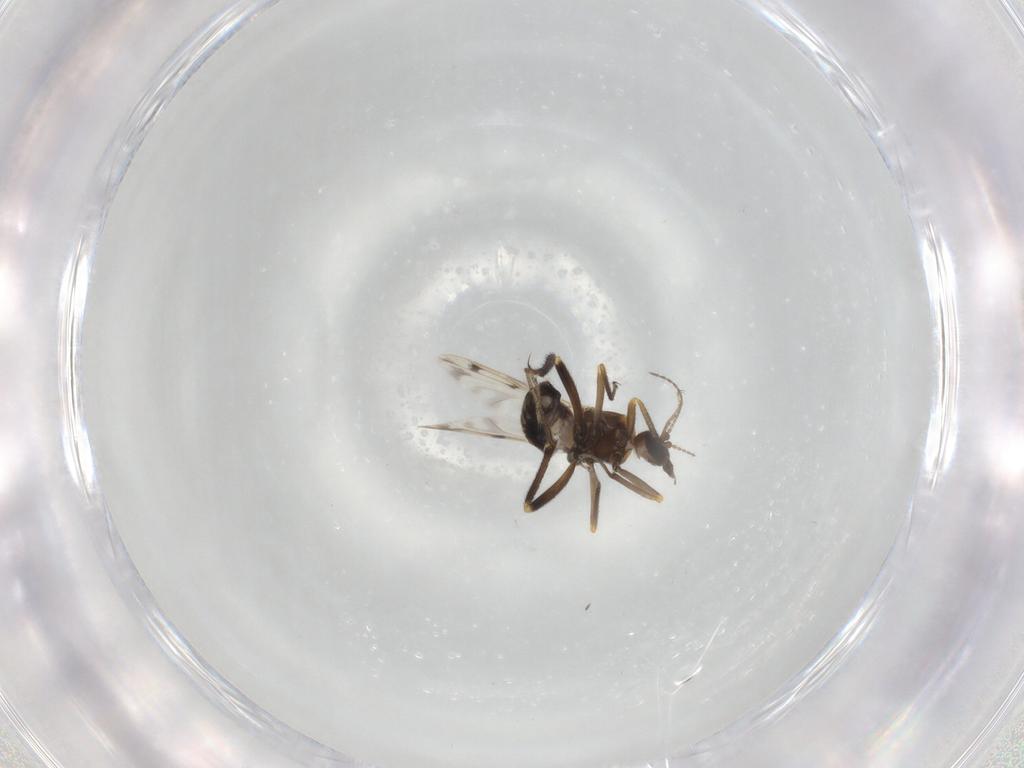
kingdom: Animalia
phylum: Arthropoda
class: Insecta
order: Diptera
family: Ceratopogonidae
